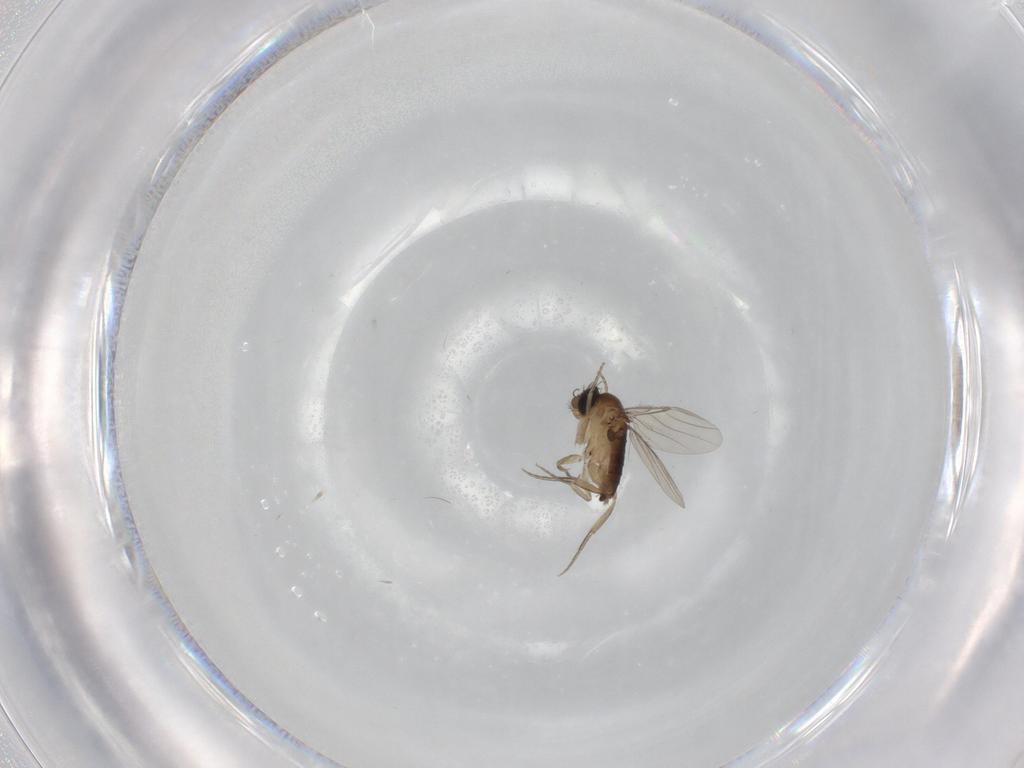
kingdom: Animalia
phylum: Arthropoda
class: Insecta
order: Diptera
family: Phoridae
